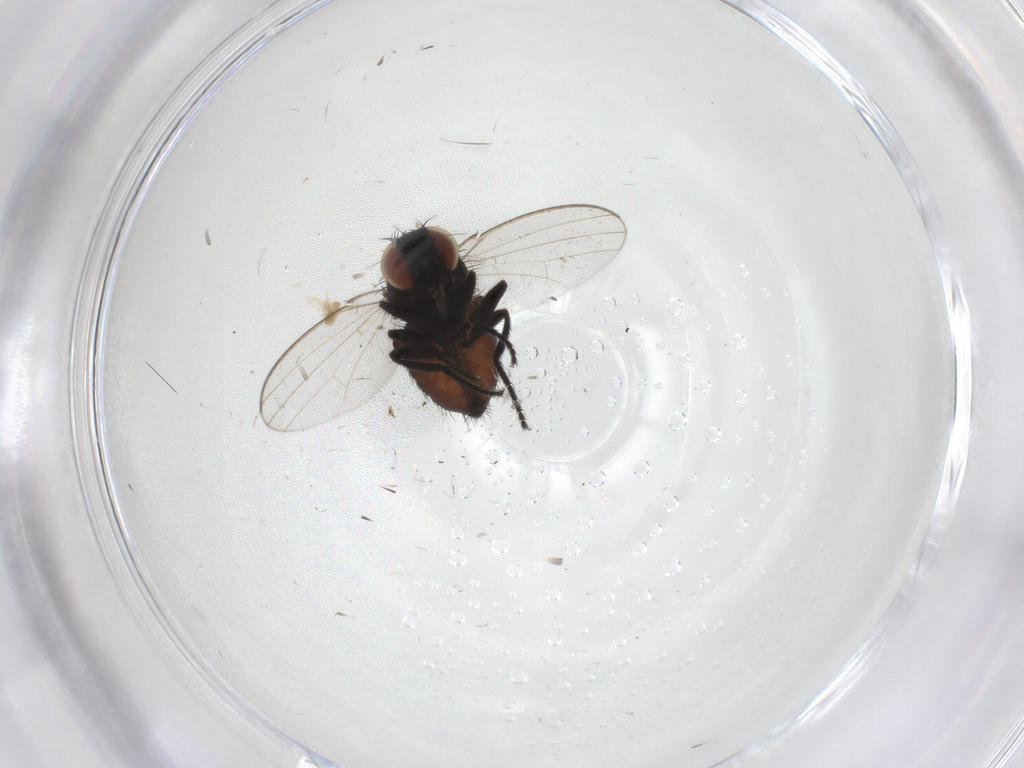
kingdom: Animalia
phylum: Arthropoda
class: Insecta
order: Diptera
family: Milichiidae
